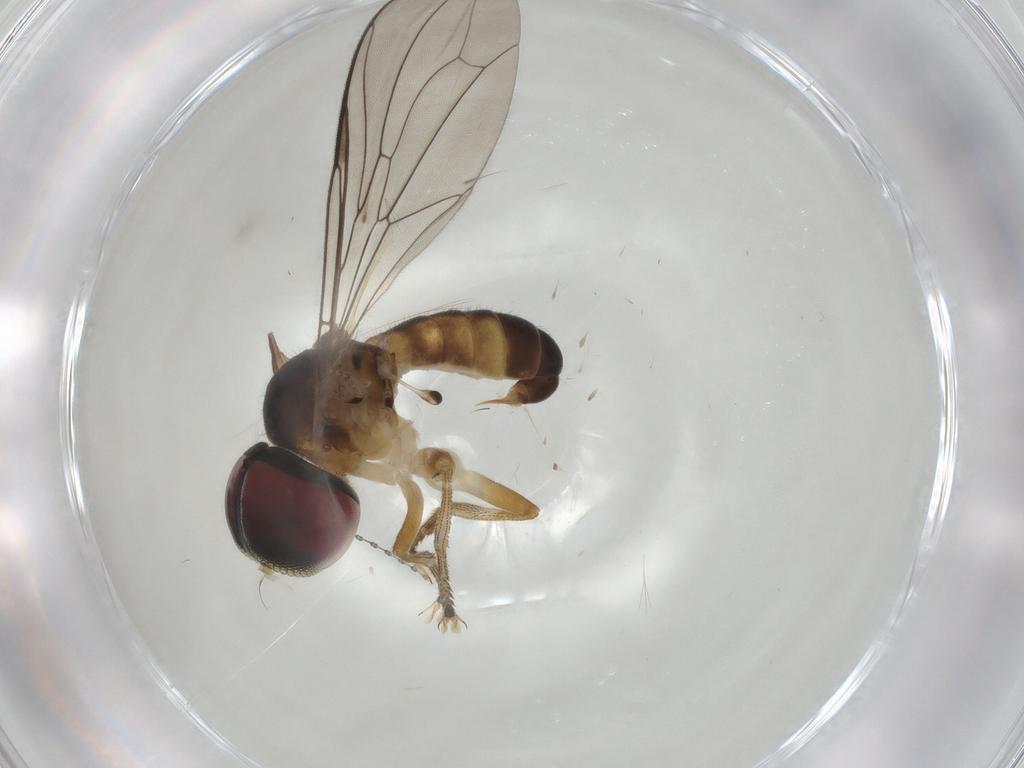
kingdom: Animalia
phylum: Arthropoda
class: Insecta
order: Diptera
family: Hybotidae
